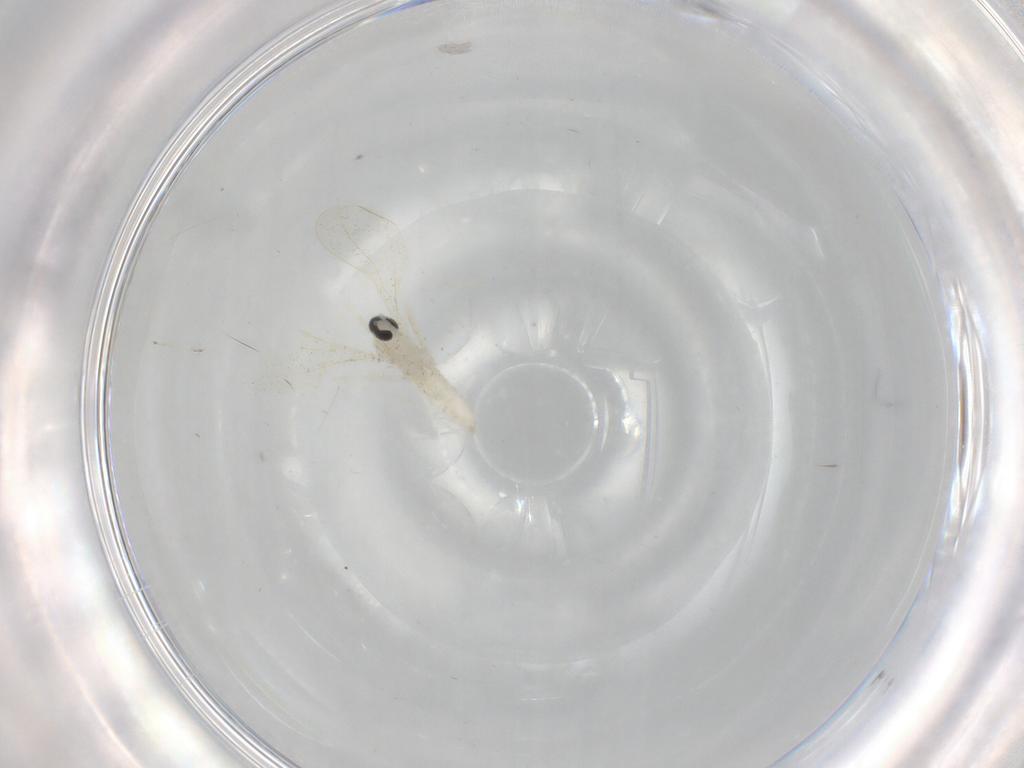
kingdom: Animalia
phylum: Arthropoda
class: Insecta
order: Diptera
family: Cecidomyiidae
